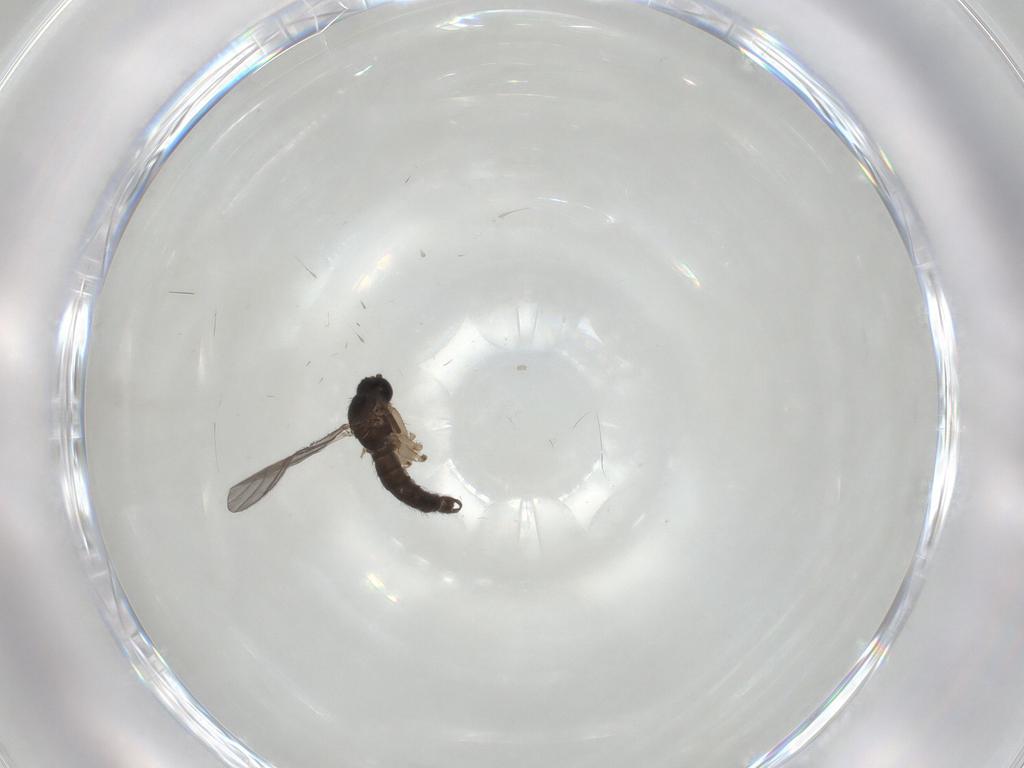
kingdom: Animalia
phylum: Arthropoda
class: Insecta
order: Diptera
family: Sciaridae
